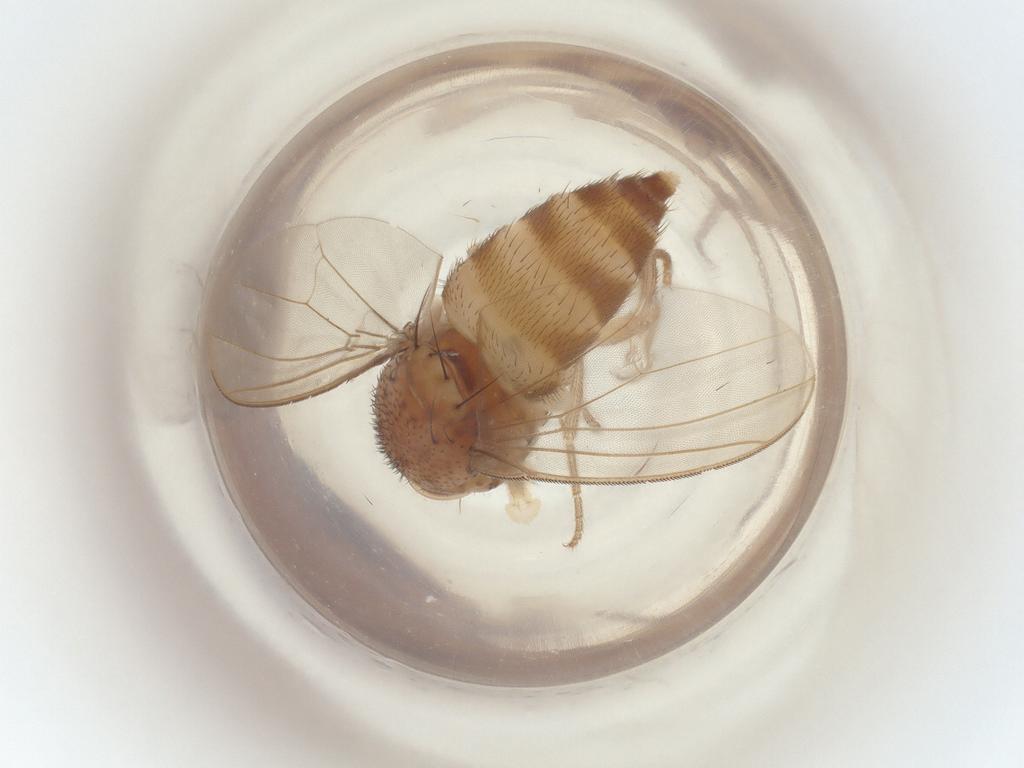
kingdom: Animalia
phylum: Arthropoda
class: Insecta
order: Diptera
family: Drosophilidae
